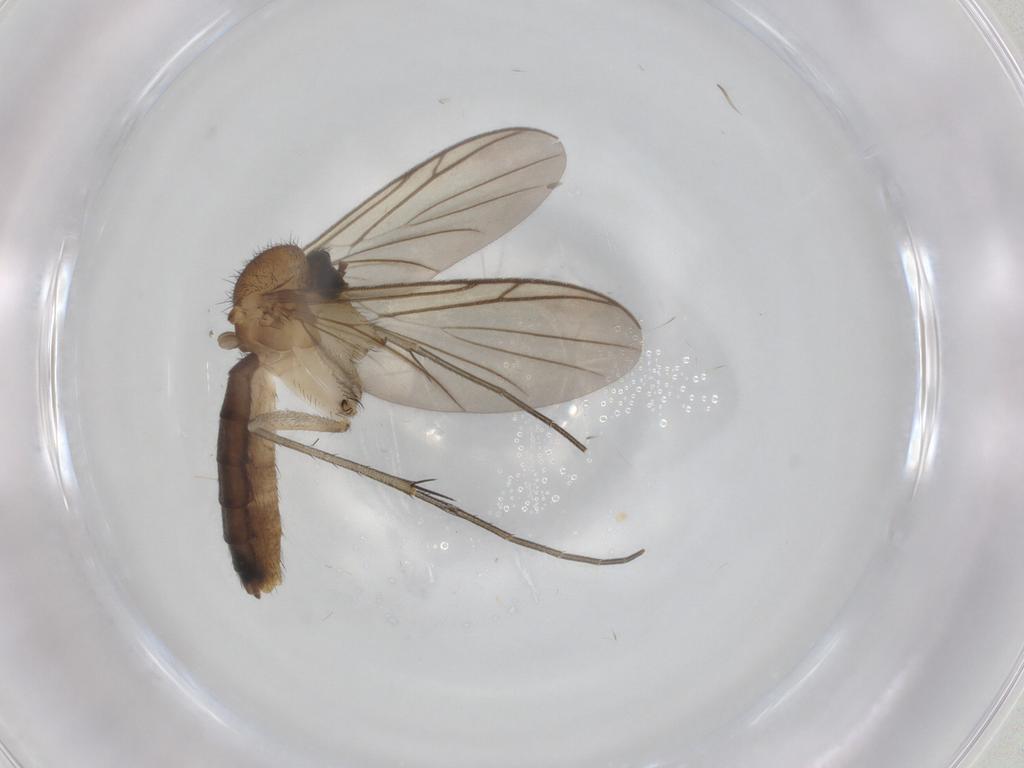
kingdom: Animalia
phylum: Arthropoda
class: Insecta
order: Diptera
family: Keroplatidae
